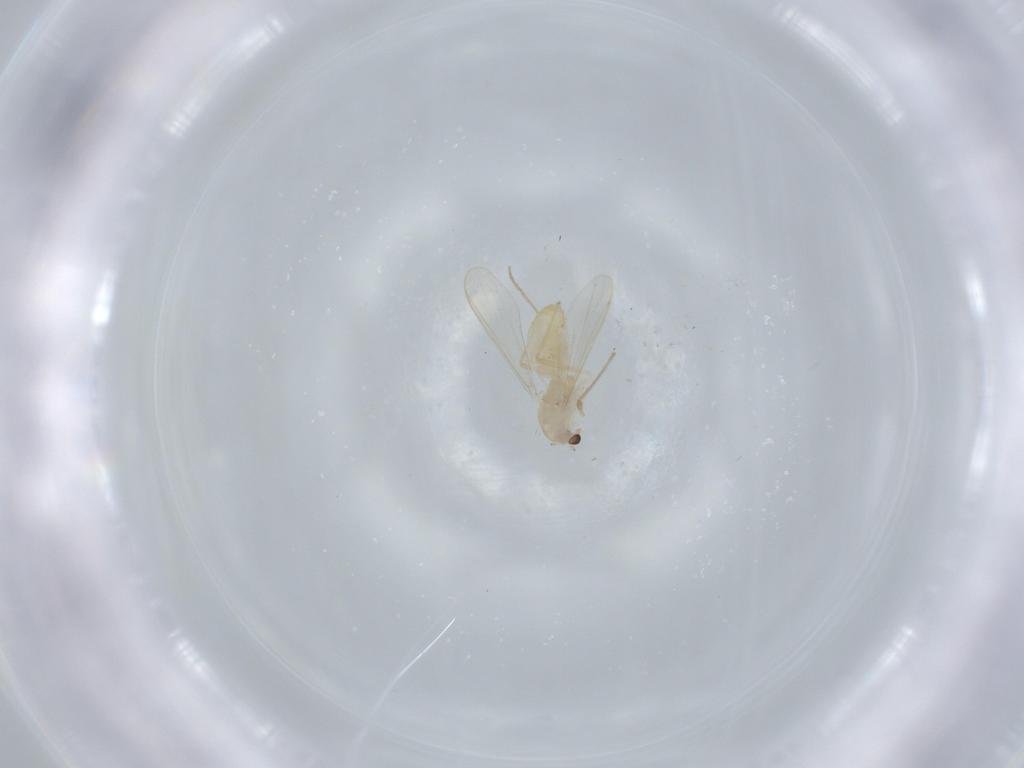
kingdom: Animalia
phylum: Arthropoda
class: Insecta
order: Diptera
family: Chironomidae
